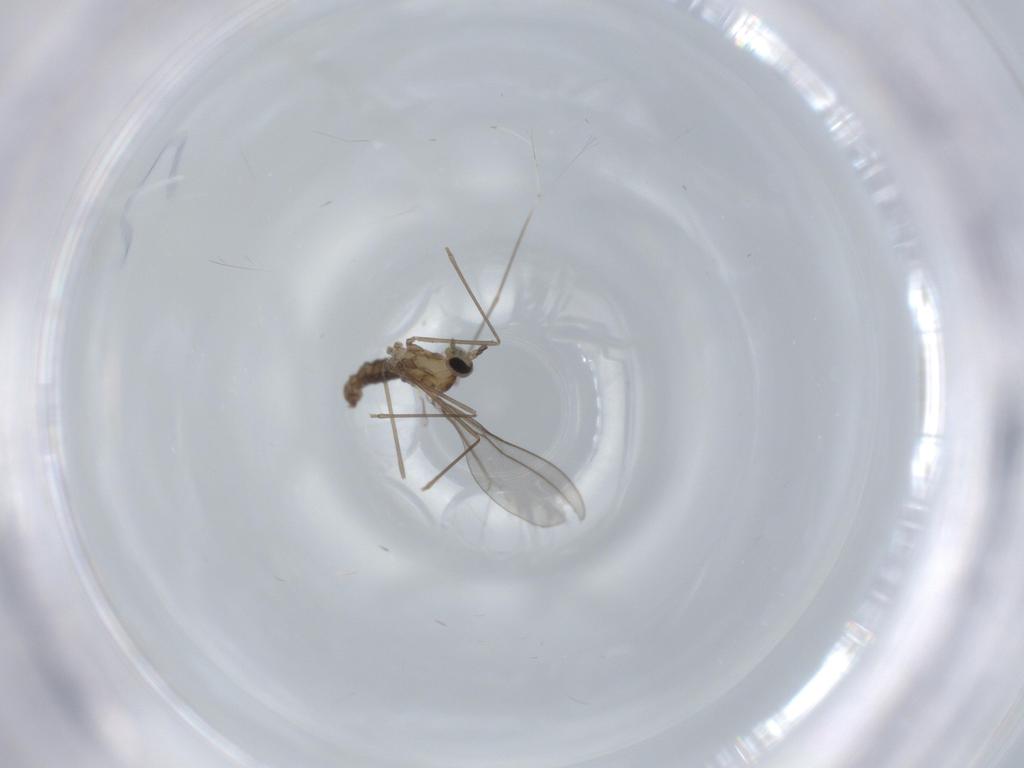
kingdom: Animalia
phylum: Arthropoda
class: Insecta
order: Diptera
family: Cecidomyiidae
